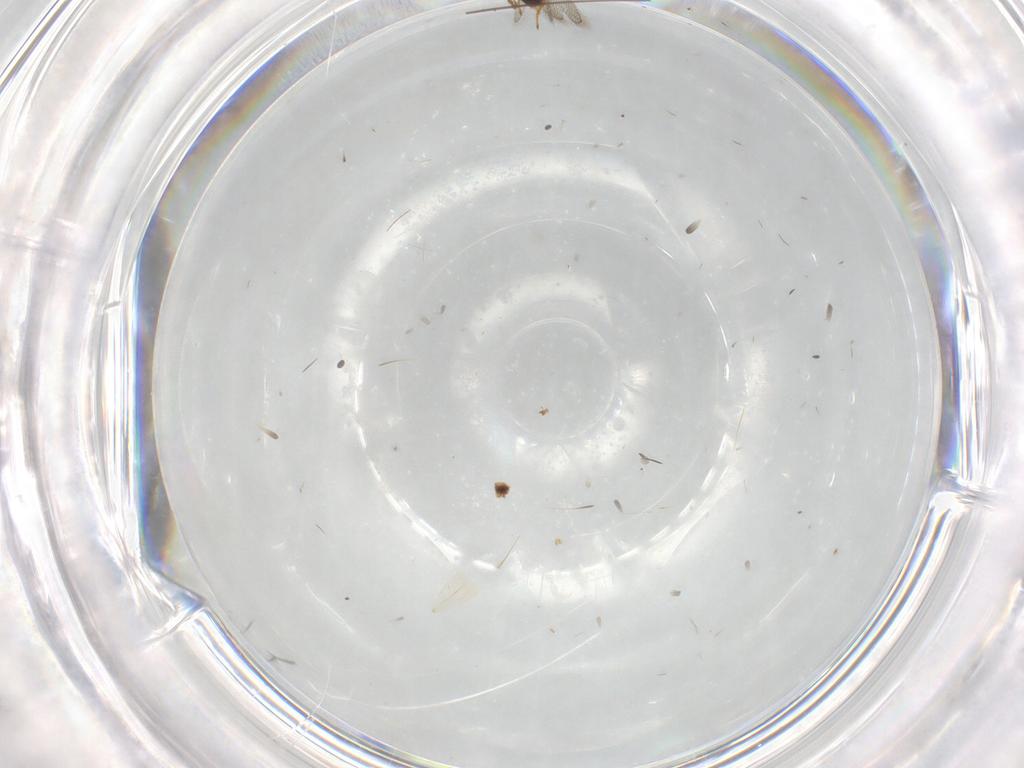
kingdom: Animalia
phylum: Arthropoda
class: Insecta
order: Hymenoptera
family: Figitidae
